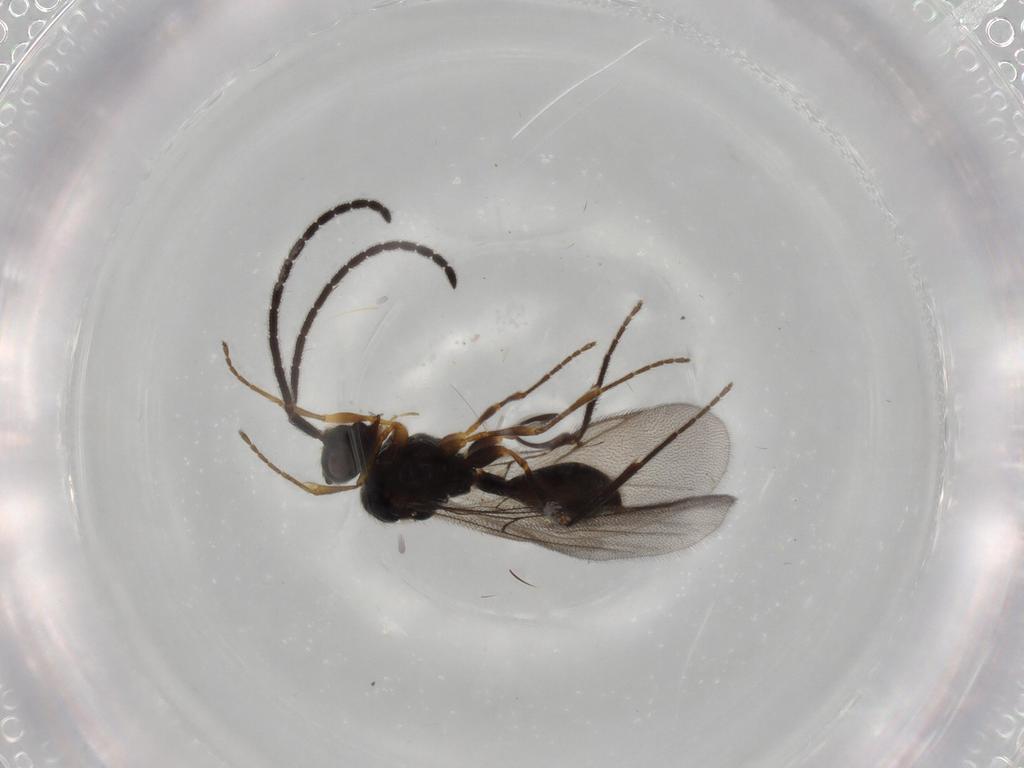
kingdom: Animalia
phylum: Arthropoda
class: Insecta
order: Hymenoptera
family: Diapriidae
